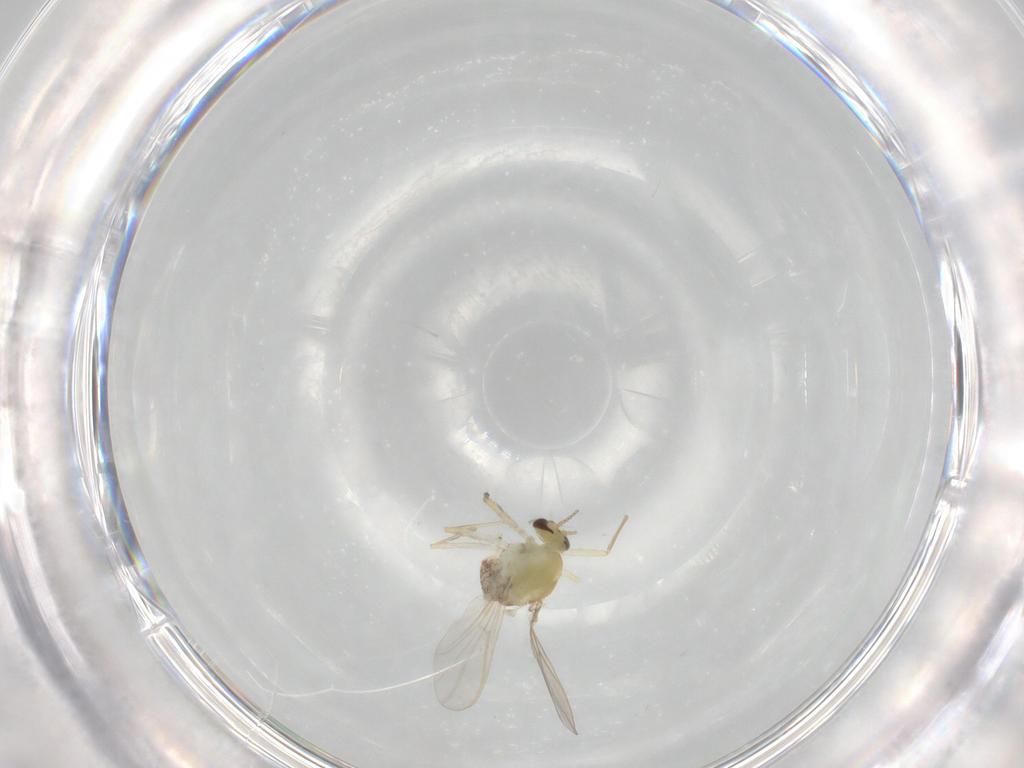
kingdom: Animalia
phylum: Arthropoda
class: Insecta
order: Diptera
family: Chironomidae
